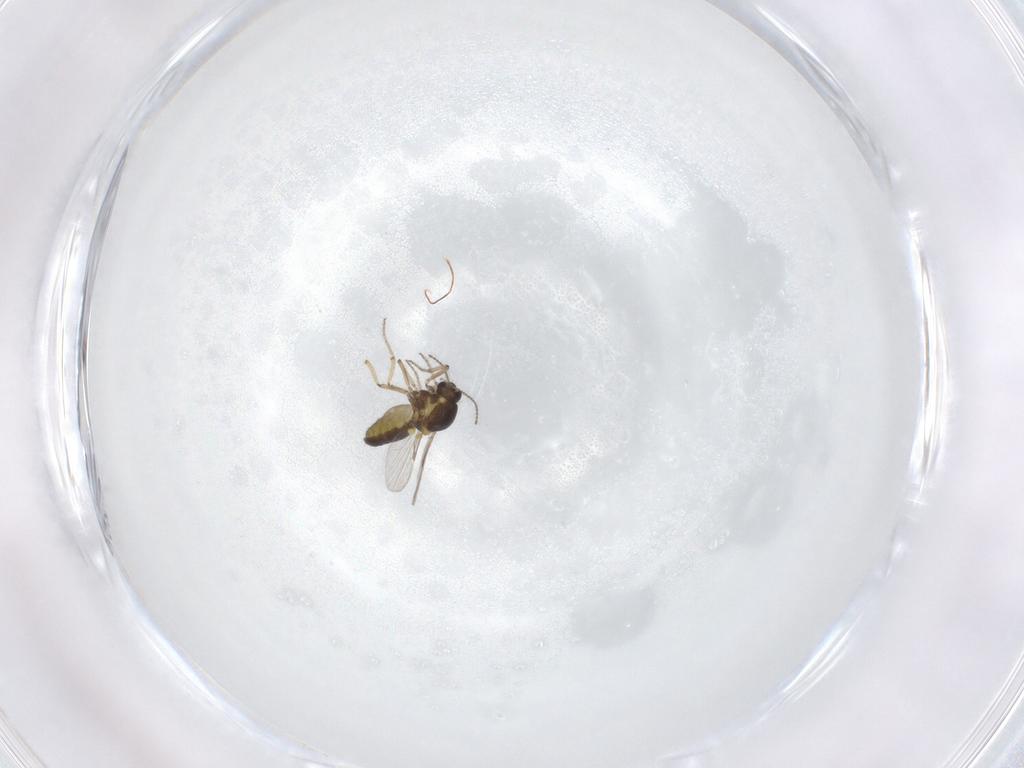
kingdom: Animalia
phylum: Arthropoda
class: Insecta
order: Diptera
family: Ceratopogonidae
